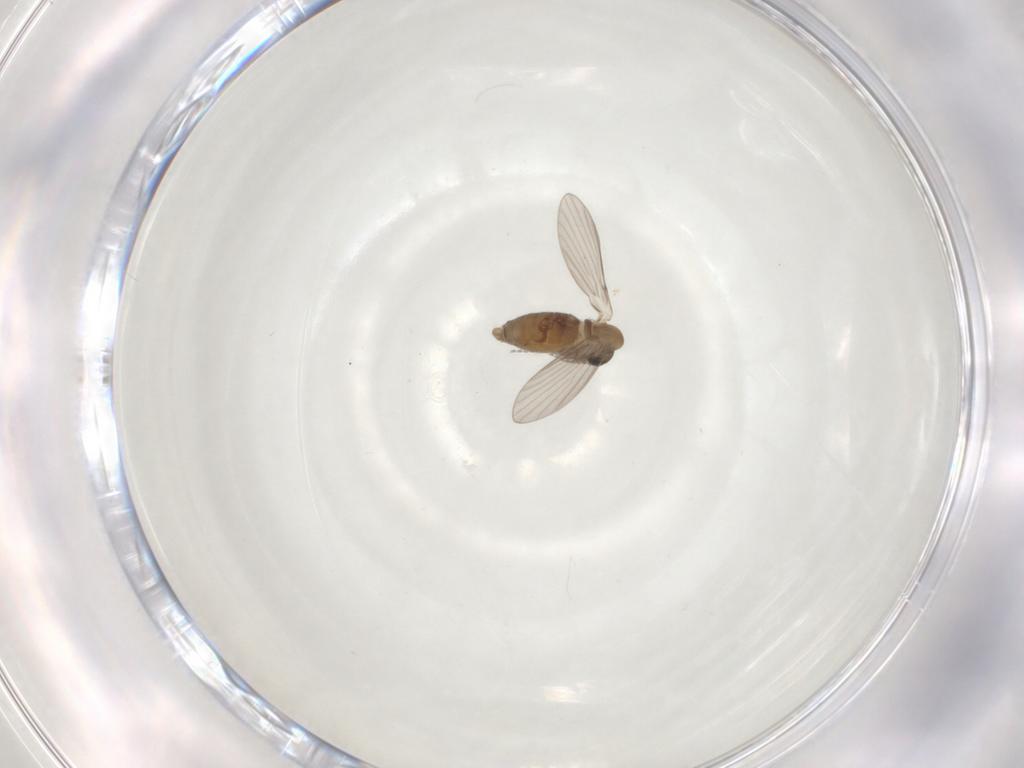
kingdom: Animalia
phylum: Arthropoda
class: Insecta
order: Diptera
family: Psychodidae
